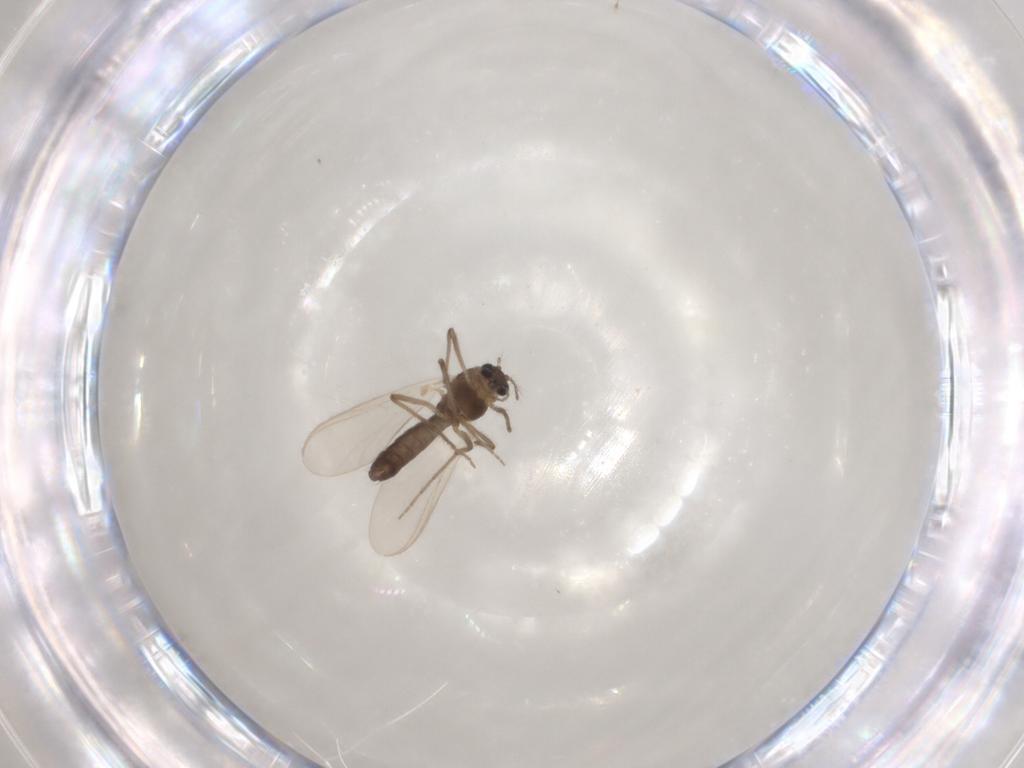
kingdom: Animalia
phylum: Arthropoda
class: Insecta
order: Diptera
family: Chironomidae
